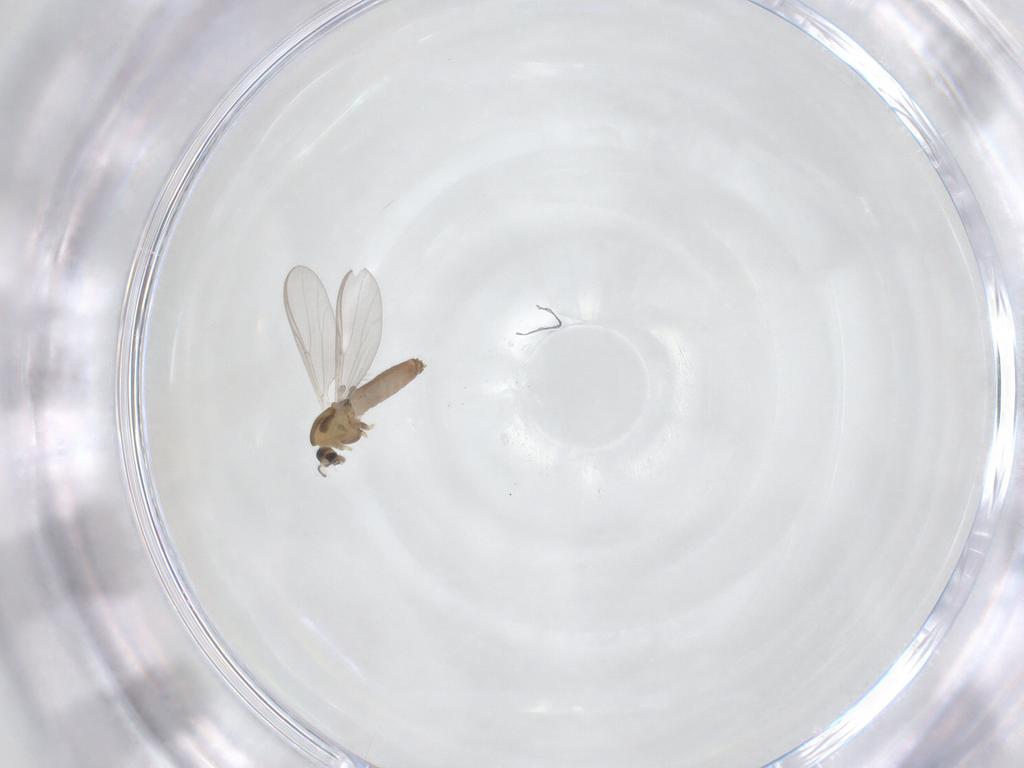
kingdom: Animalia
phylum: Arthropoda
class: Insecta
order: Diptera
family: Chironomidae
